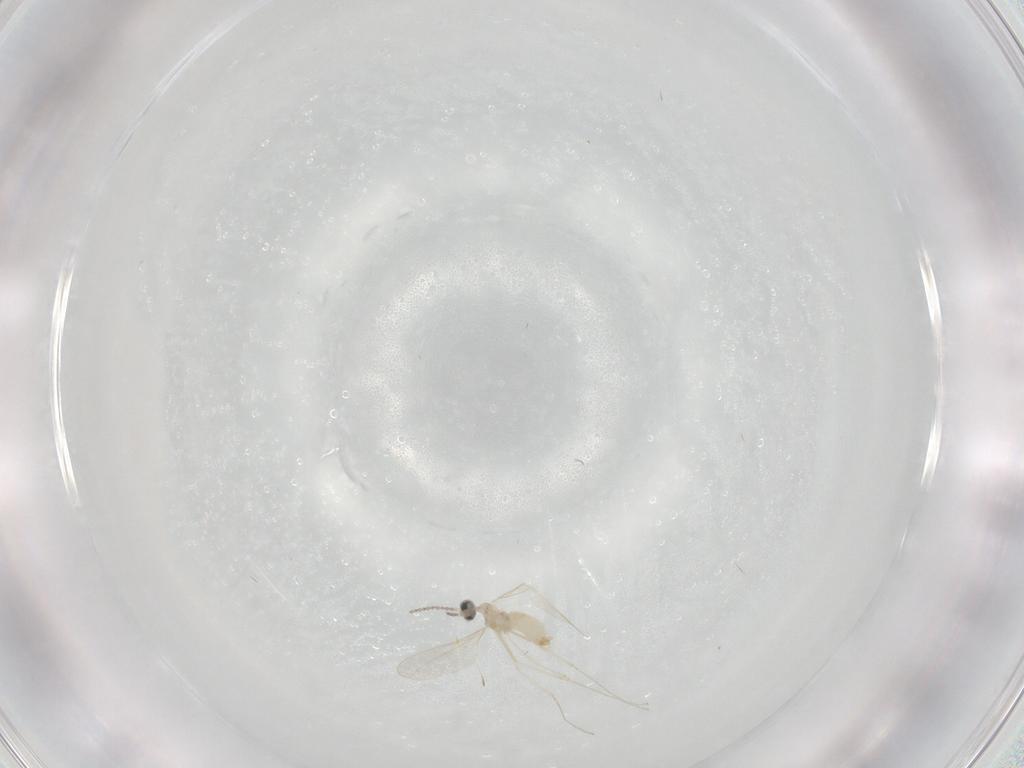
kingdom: Animalia
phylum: Arthropoda
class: Insecta
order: Diptera
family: Cecidomyiidae
